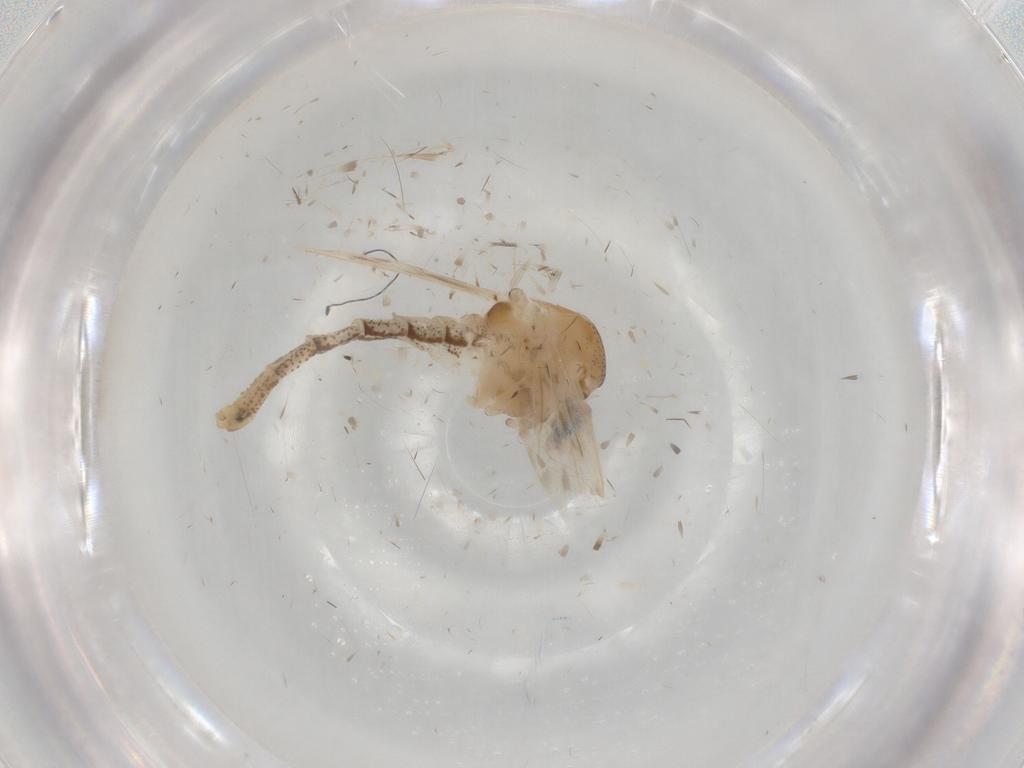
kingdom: Animalia
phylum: Arthropoda
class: Insecta
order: Diptera
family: Chaoboridae
